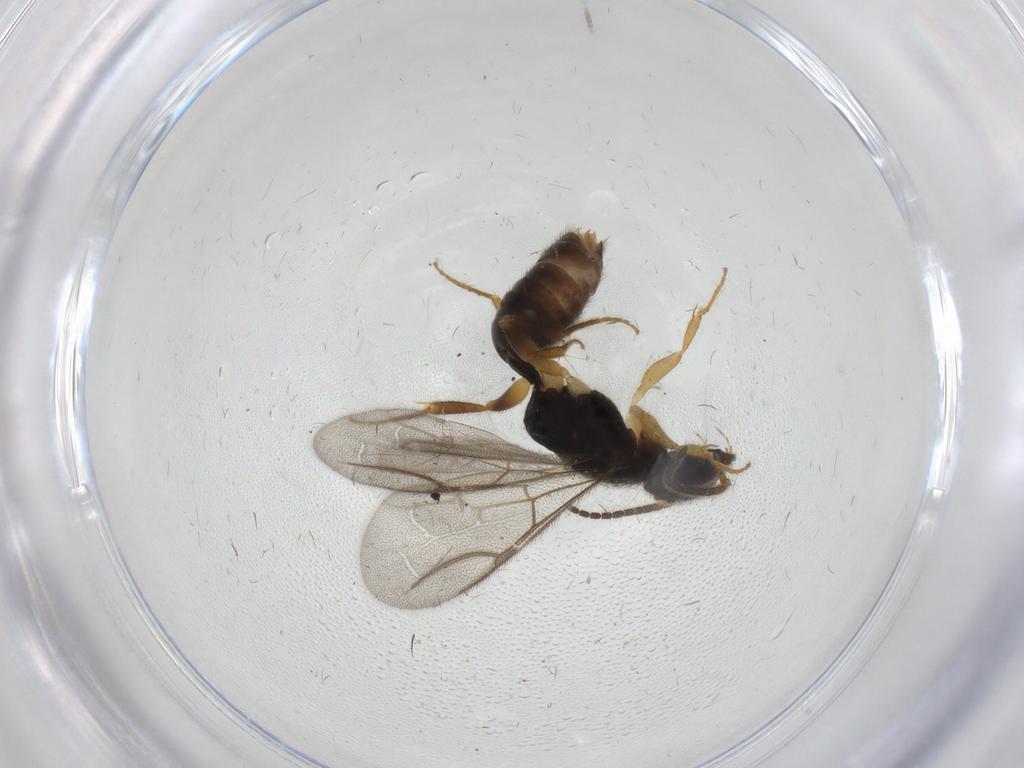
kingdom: Animalia
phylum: Arthropoda
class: Insecta
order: Hymenoptera
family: Bethylidae
